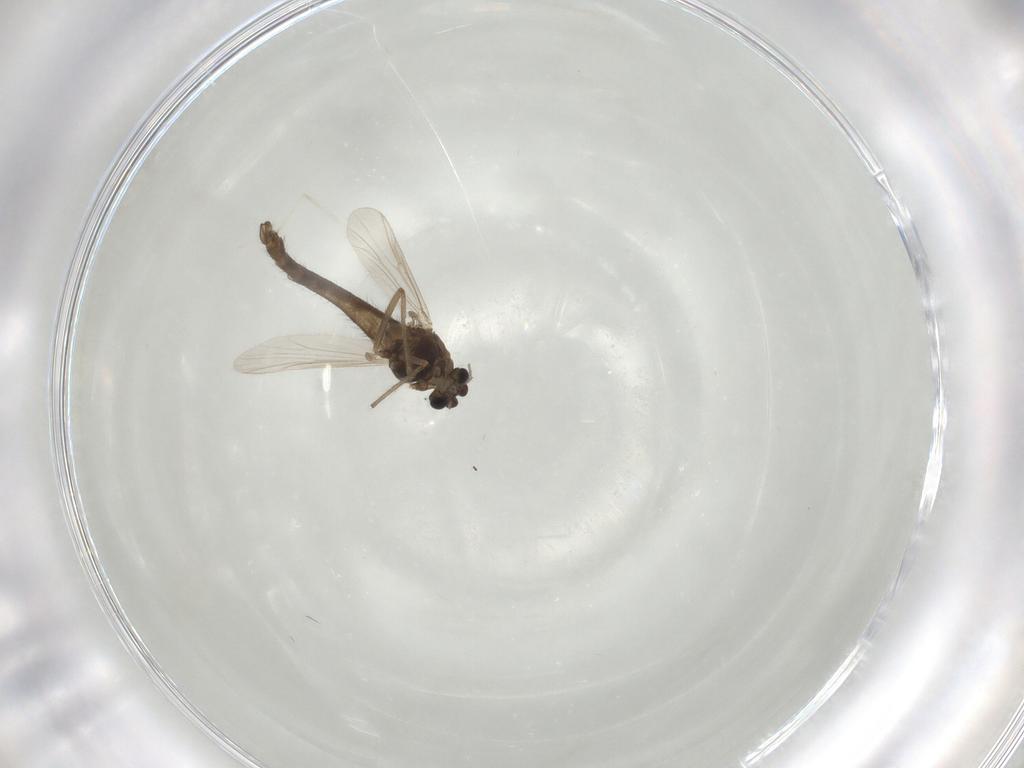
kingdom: Animalia
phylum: Arthropoda
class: Insecta
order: Diptera
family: Chironomidae
